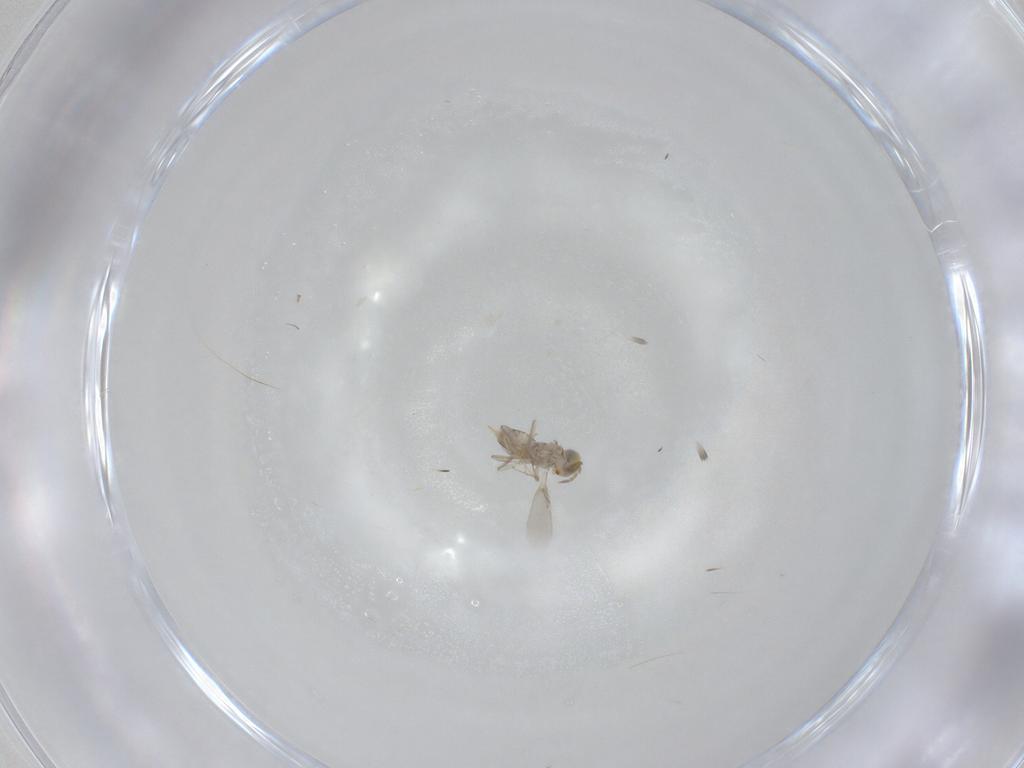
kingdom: Animalia
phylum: Arthropoda
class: Insecta
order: Hymenoptera
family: Aphelinidae
